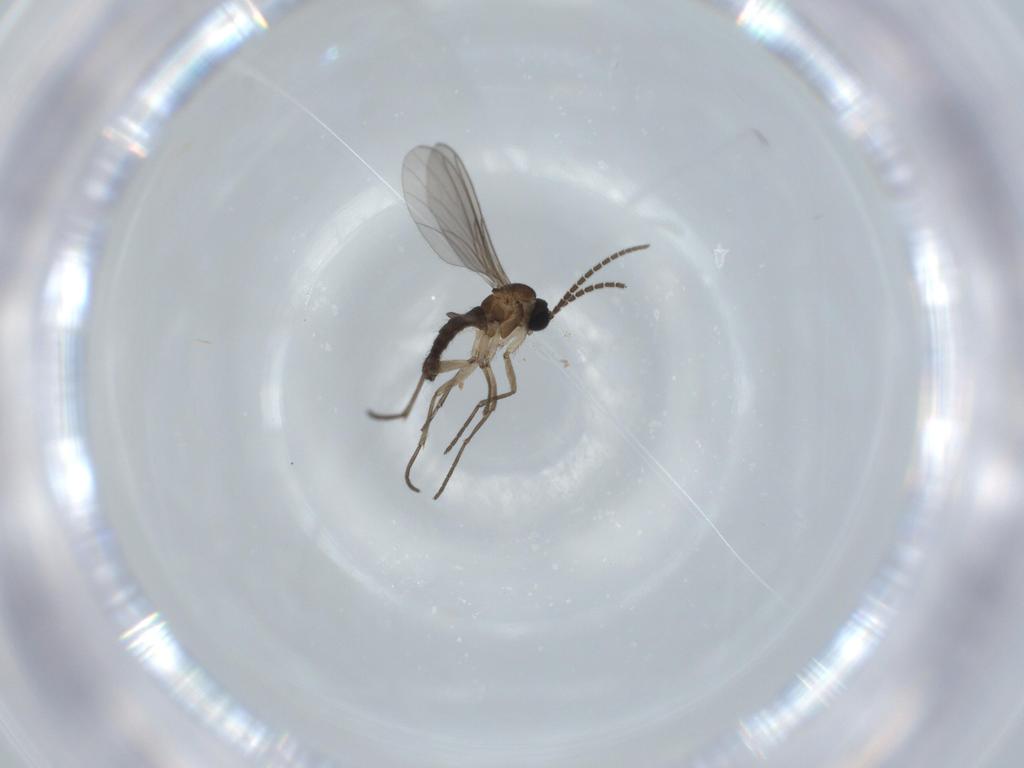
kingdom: Animalia
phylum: Arthropoda
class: Insecta
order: Diptera
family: Sciaridae
